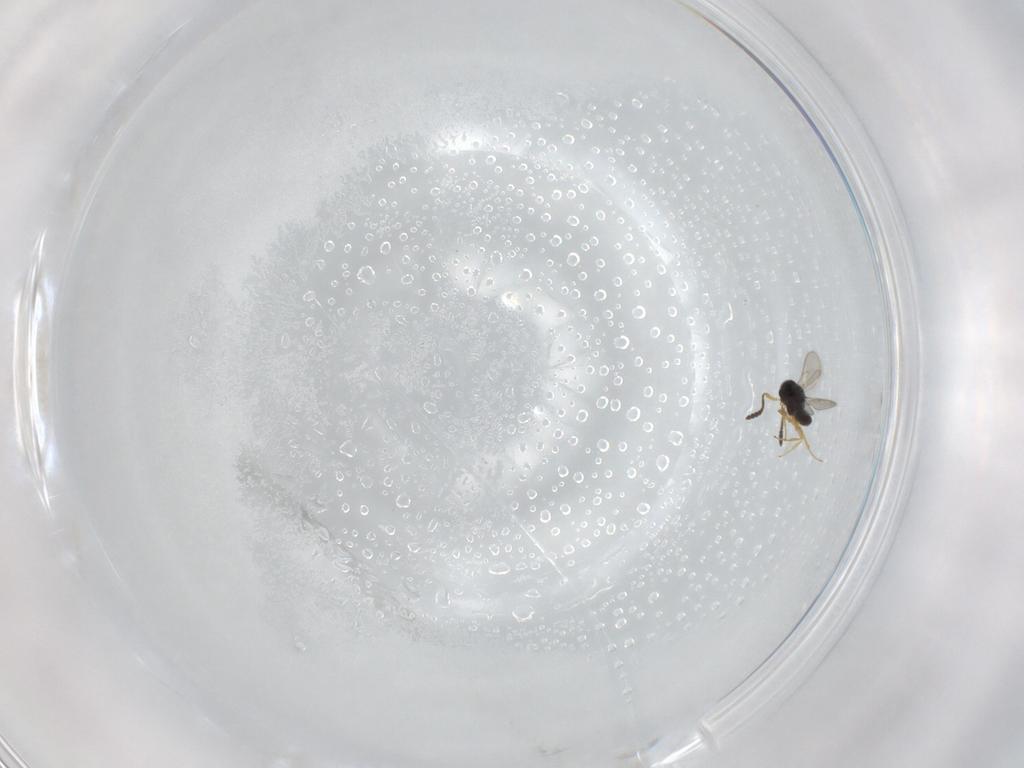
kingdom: Animalia
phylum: Arthropoda
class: Insecta
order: Hymenoptera
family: Scelionidae
